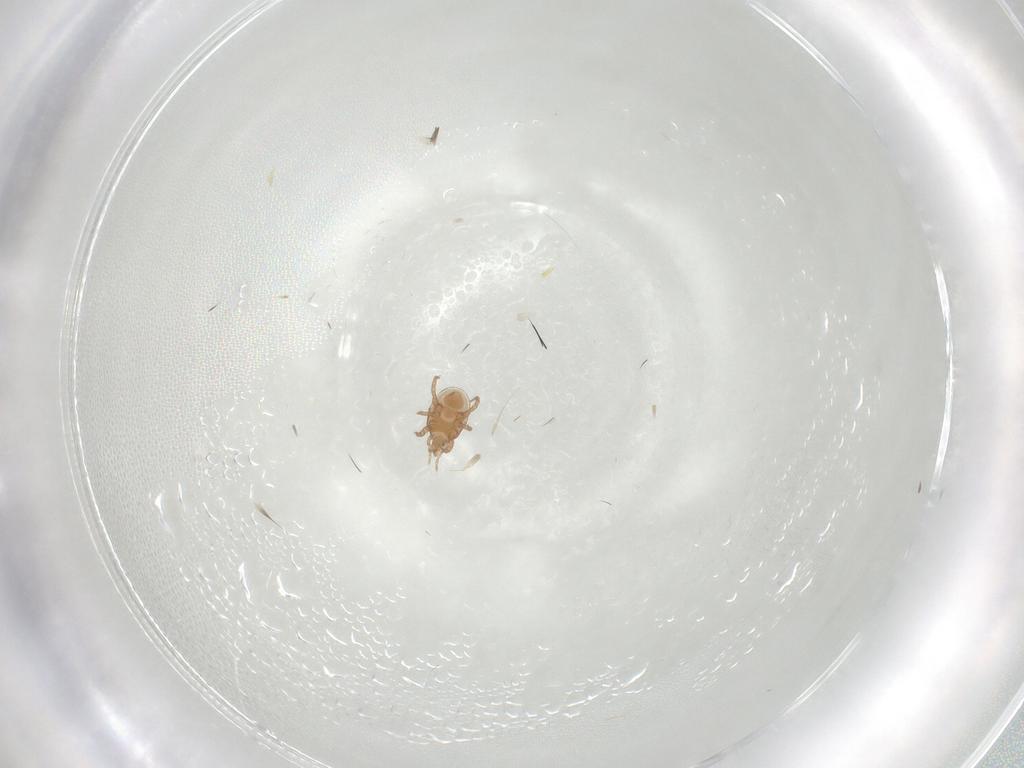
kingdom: Animalia
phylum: Arthropoda
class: Arachnida
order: Mesostigmata
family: Macrochelidae
